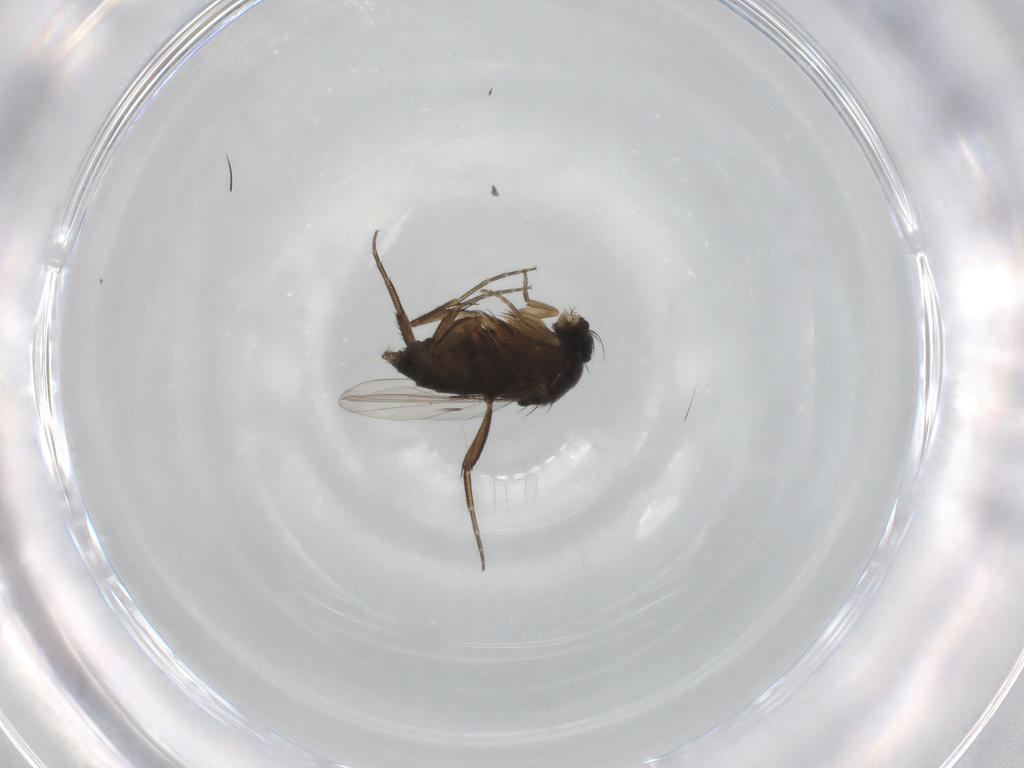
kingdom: Animalia
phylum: Arthropoda
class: Insecta
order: Diptera
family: Phoridae
